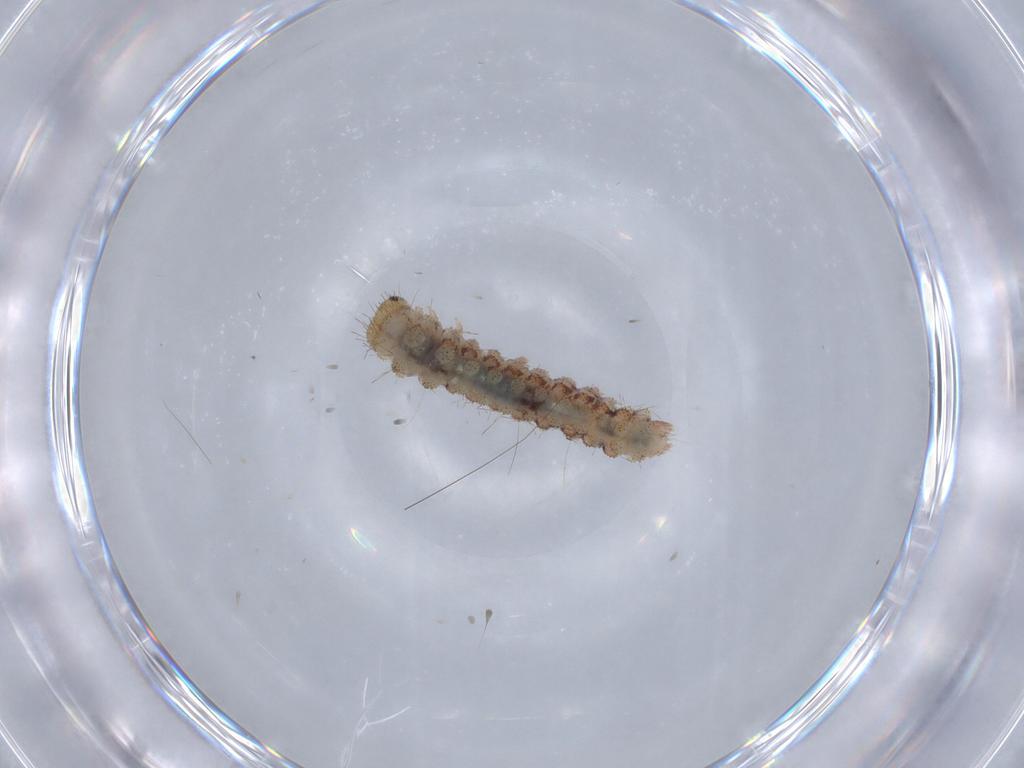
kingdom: Animalia
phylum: Arthropoda
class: Insecta
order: Lepidoptera
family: Erebidae
